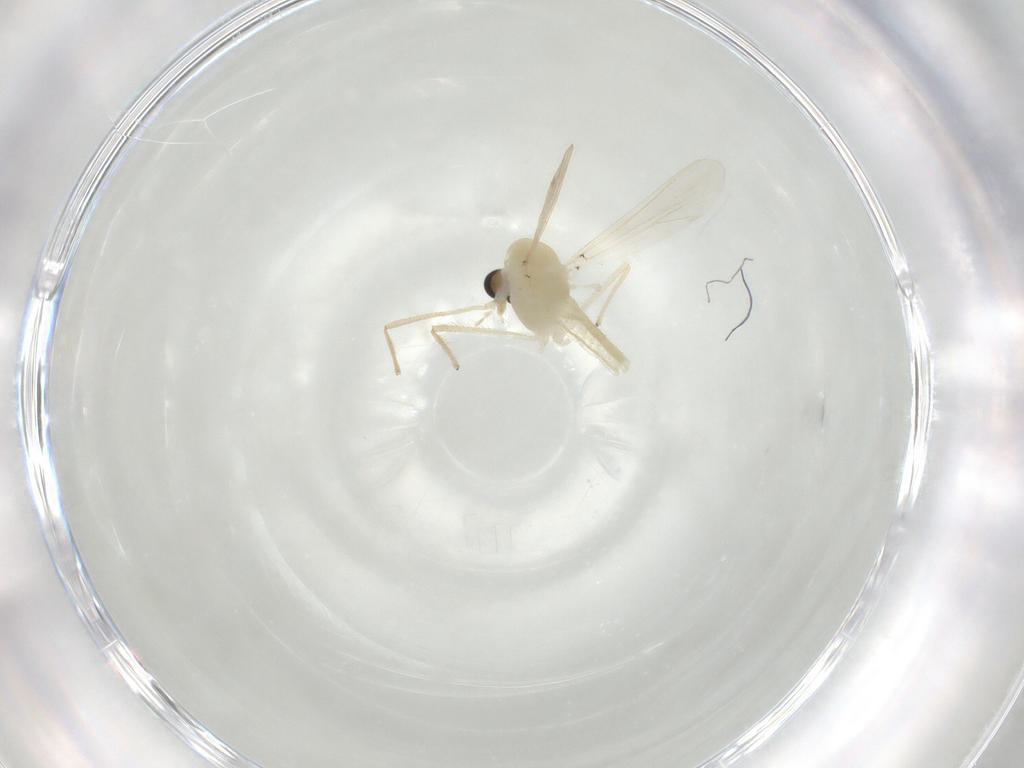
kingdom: Animalia
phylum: Arthropoda
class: Insecta
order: Diptera
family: Chironomidae
